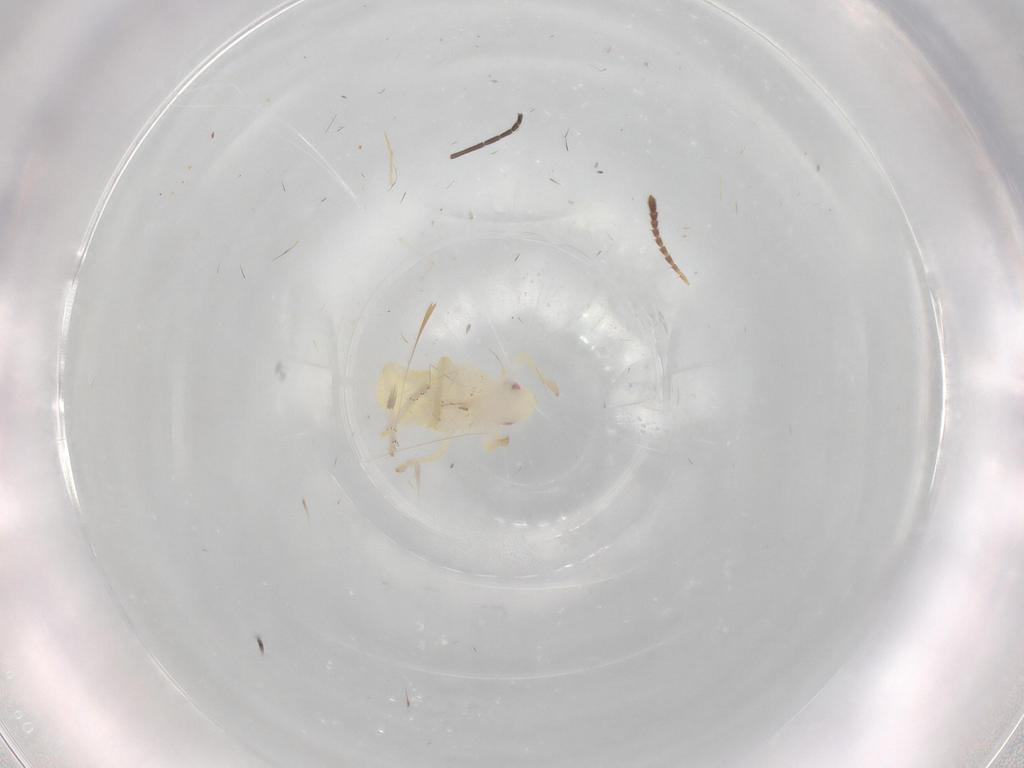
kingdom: Animalia
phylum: Arthropoda
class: Insecta
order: Hemiptera
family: Fulgoroidea_incertae_sedis
